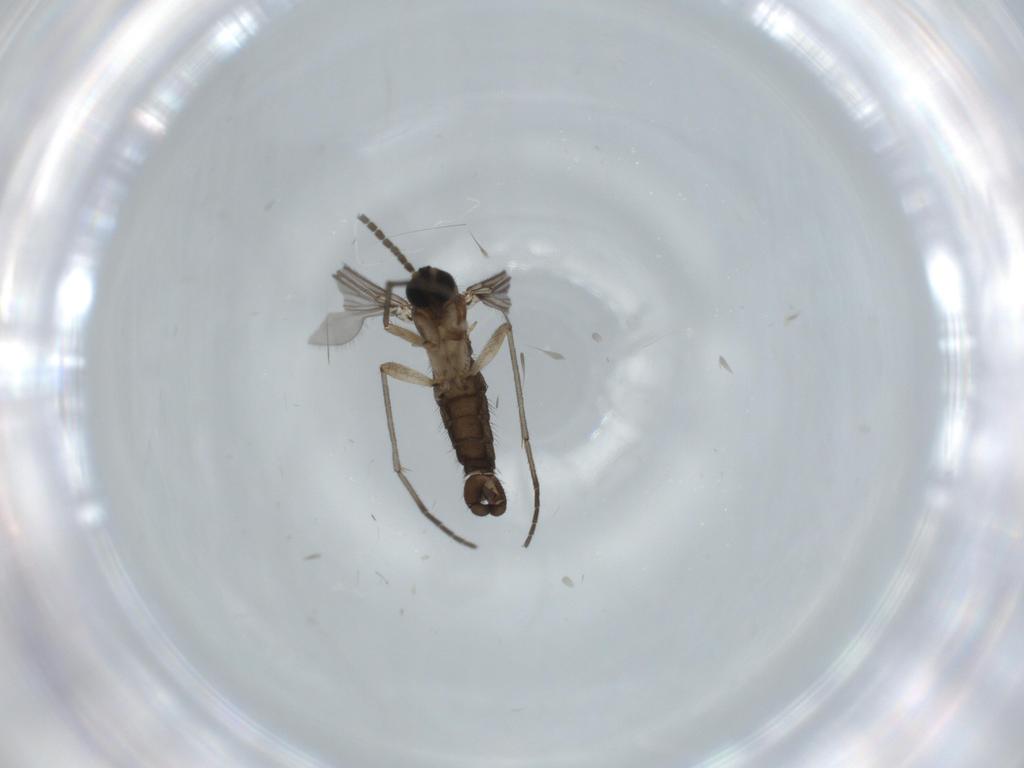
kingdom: Animalia
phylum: Arthropoda
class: Insecta
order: Diptera
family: Sciaridae
